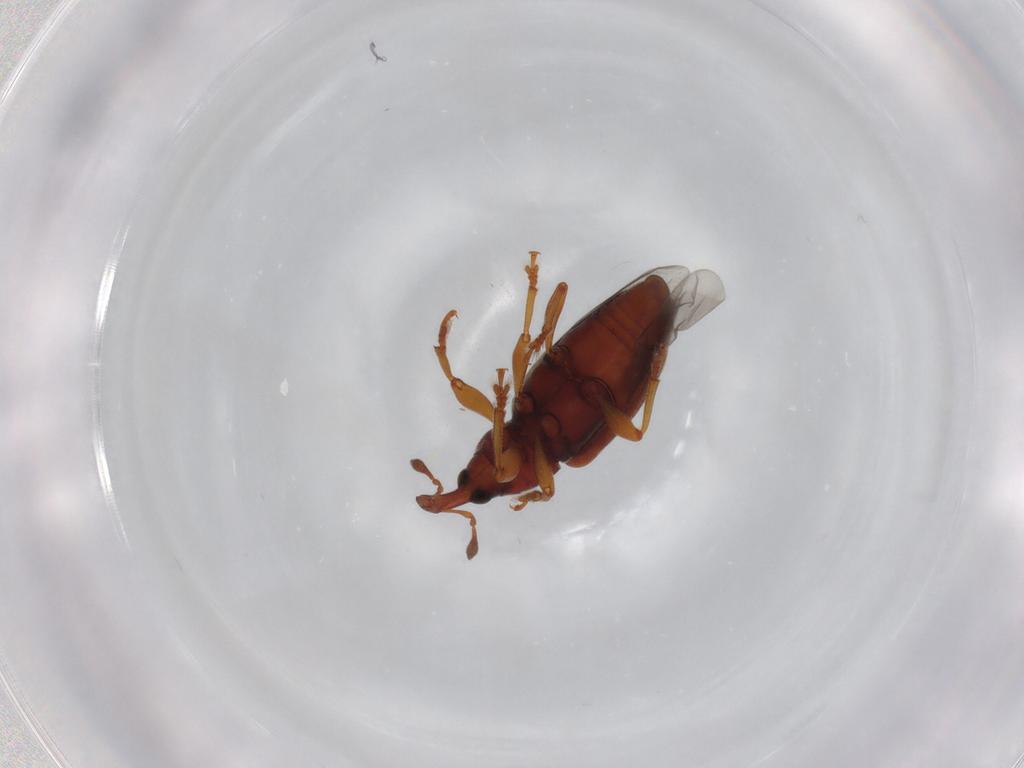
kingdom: Animalia
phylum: Arthropoda
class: Insecta
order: Coleoptera
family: Curculionidae
